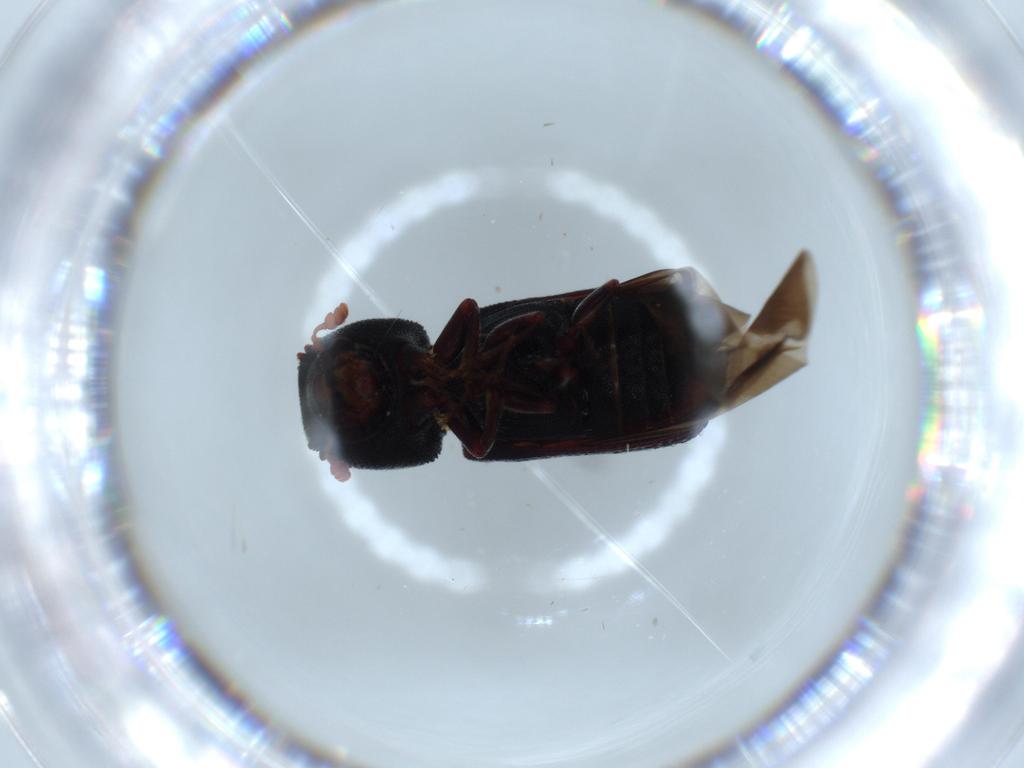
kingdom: Animalia
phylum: Arthropoda
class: Insecta
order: Coleoptera
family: Bostrichidae
